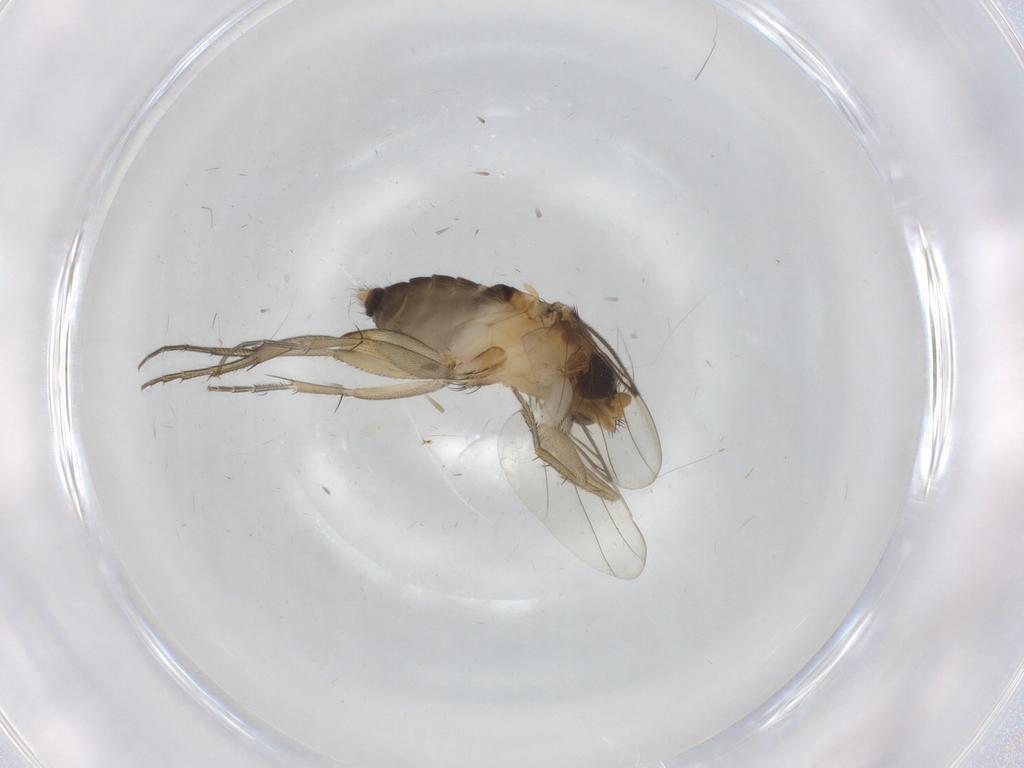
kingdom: Animalia
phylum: Arthropoda
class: Insecta
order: Diptera
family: Phoridae
